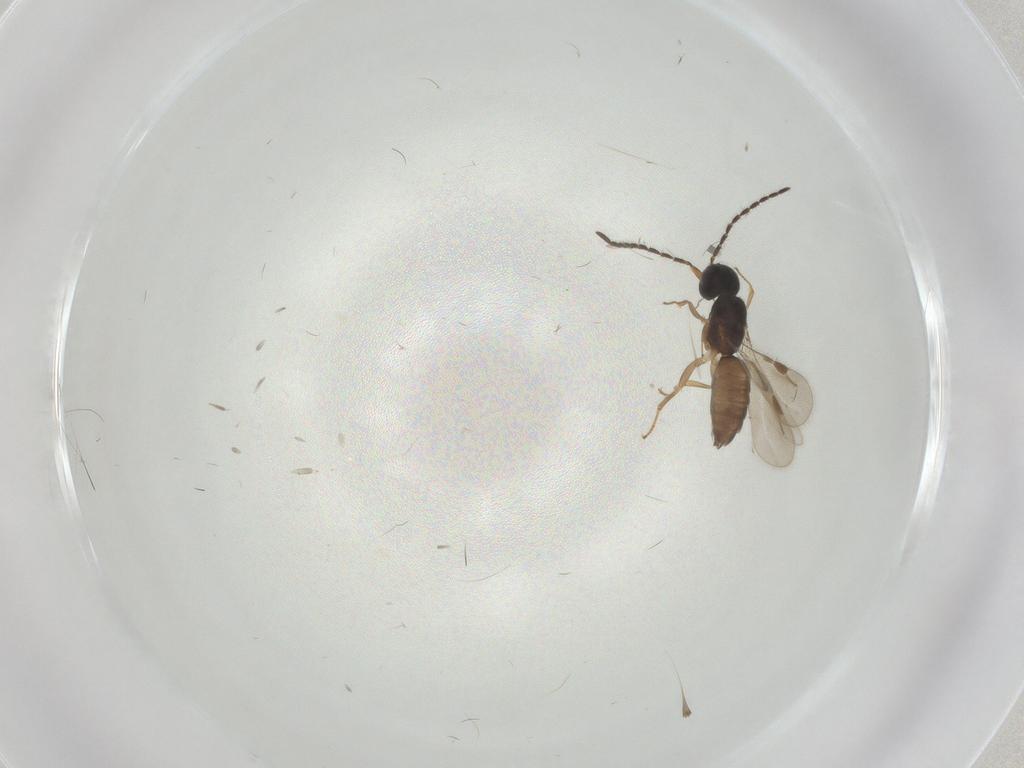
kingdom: Animalia
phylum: Arthropoda
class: Insecta
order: Hymenoptera
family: Megaspilidae
